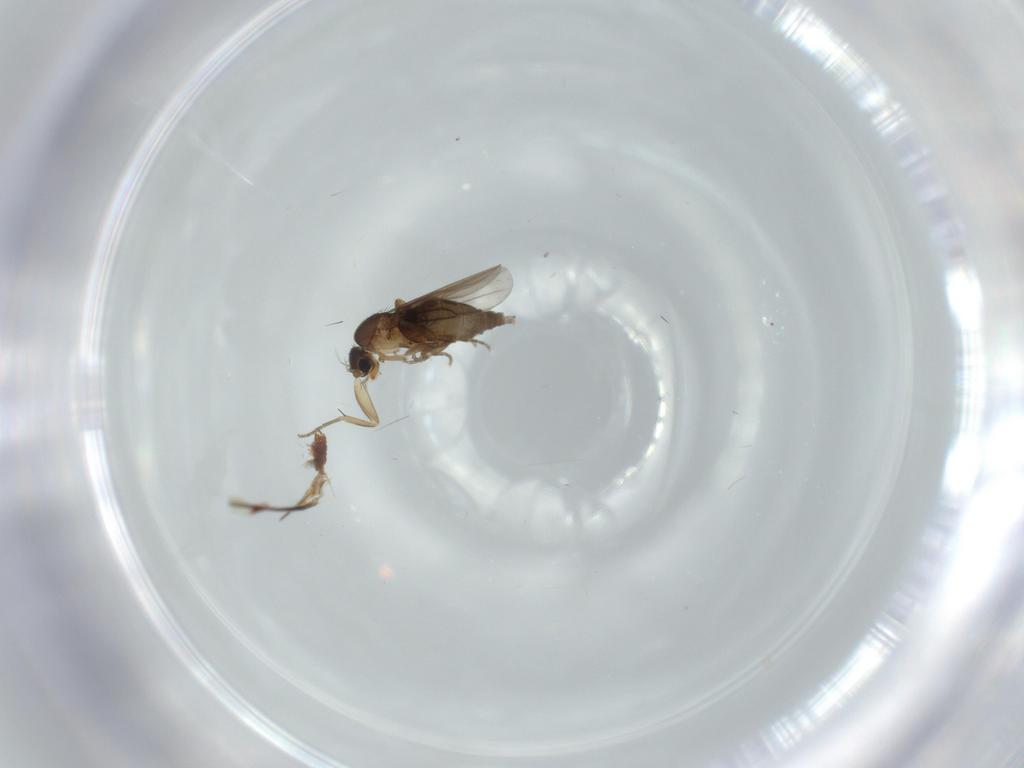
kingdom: Animalia
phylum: Arthropoda
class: Insecta
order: Diptera
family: Phoridae
